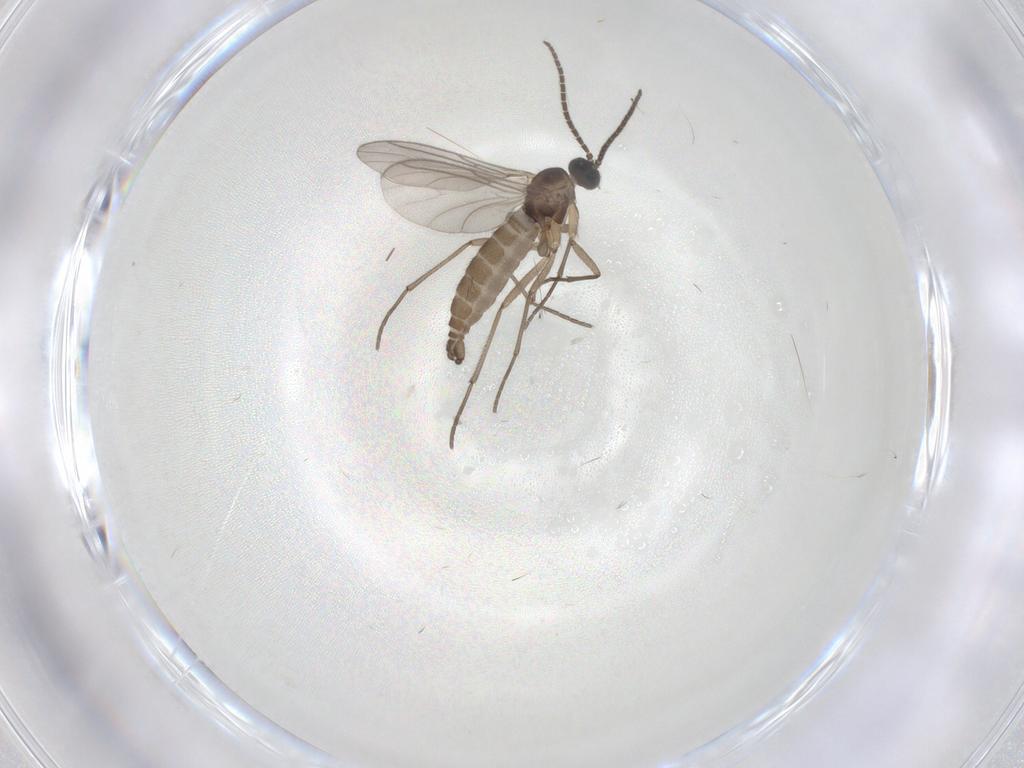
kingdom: Animalia
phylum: Arthropoda
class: Insecta
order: Diptera
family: Sciaridae
